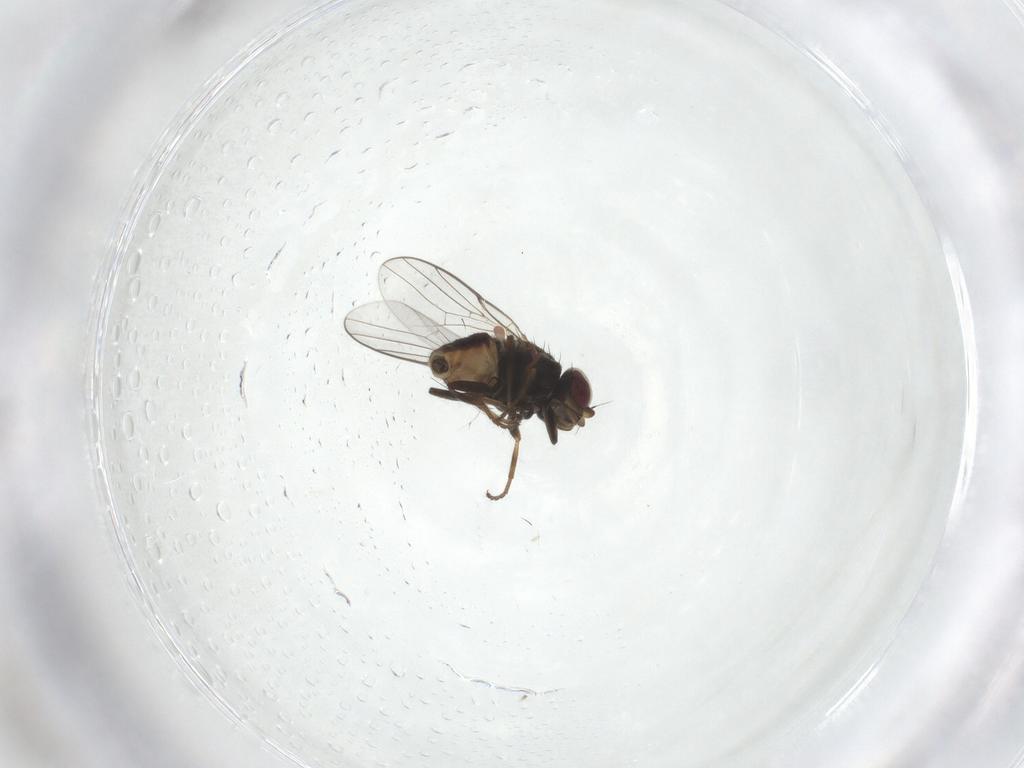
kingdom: Animalia
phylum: Arthropoda
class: Insecta
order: Diptera
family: Chloropidae
